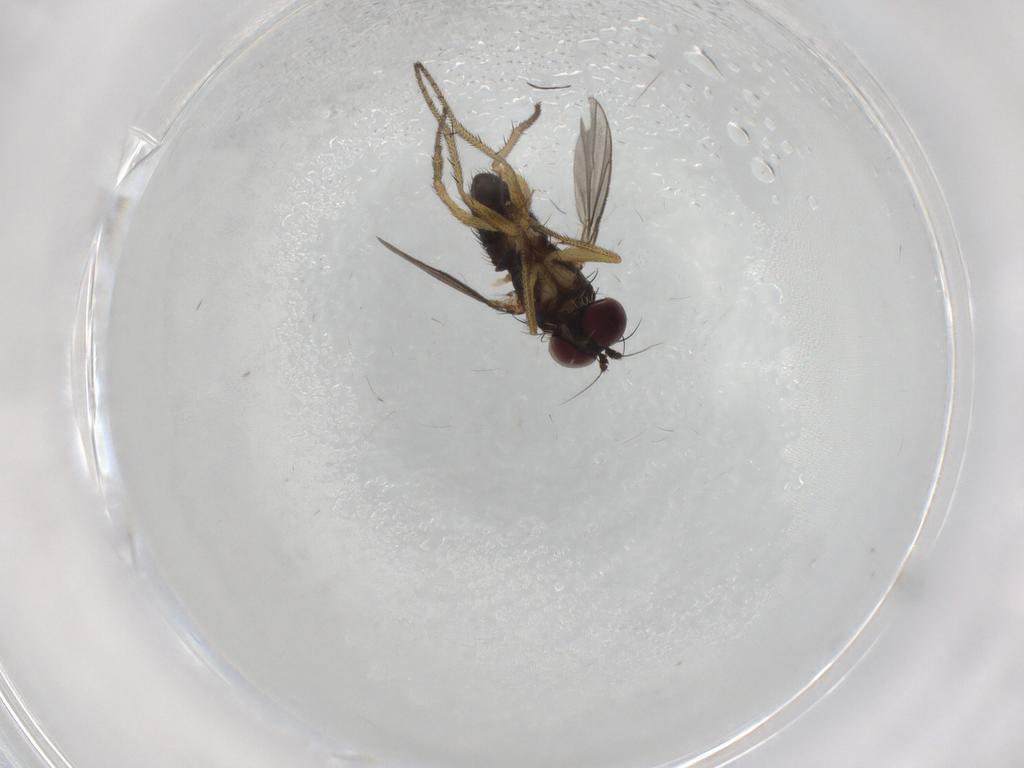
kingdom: Animalia
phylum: Arthropoda
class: Insecta
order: Diptera
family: Dolichopodidae
